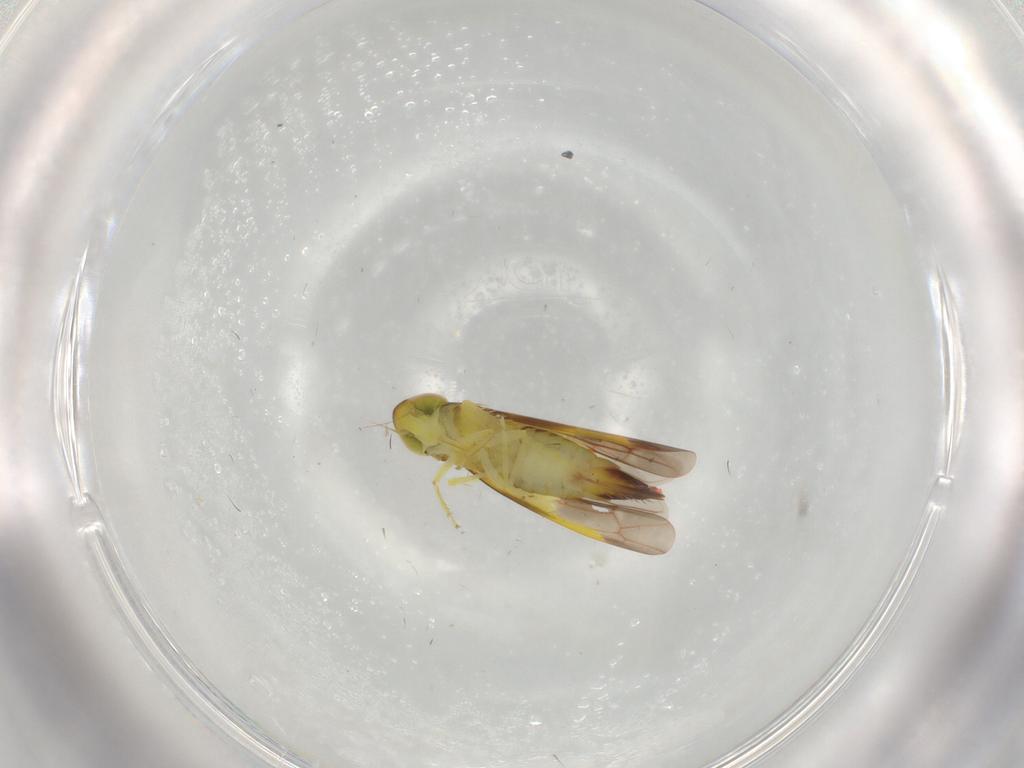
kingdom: Animalia
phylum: Arthropoda
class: Insecta
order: Hemiptera
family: Cicadellidae
